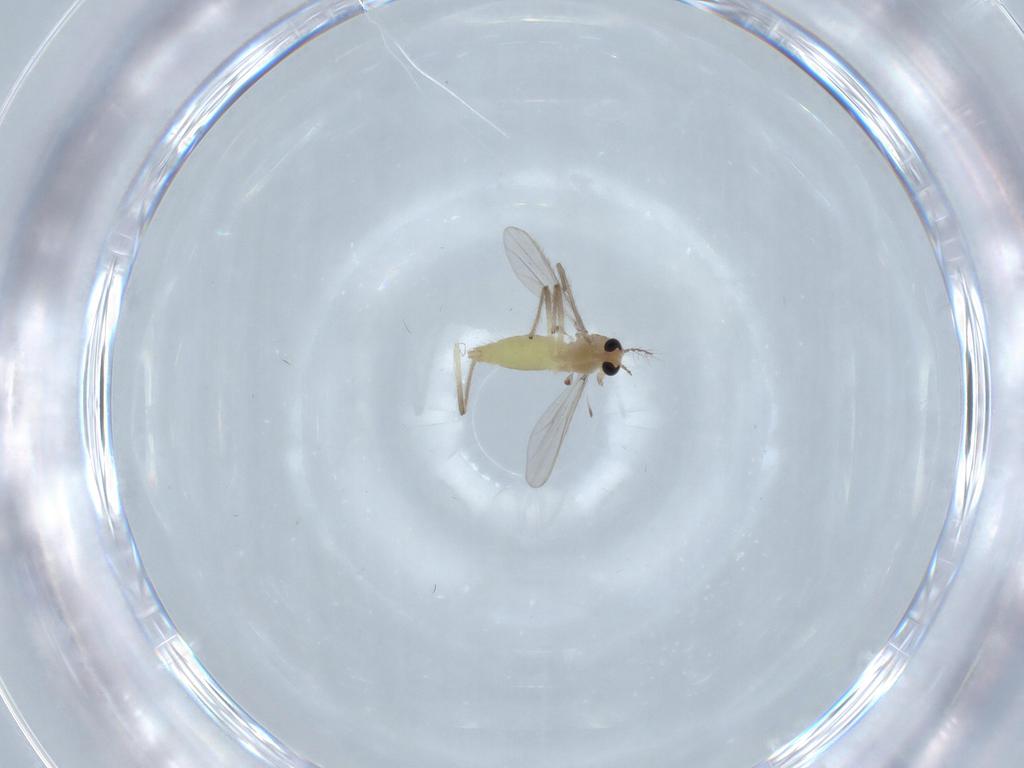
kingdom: Animalia
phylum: Arthropoda
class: Insecta
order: Diptera
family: Chironomidae
